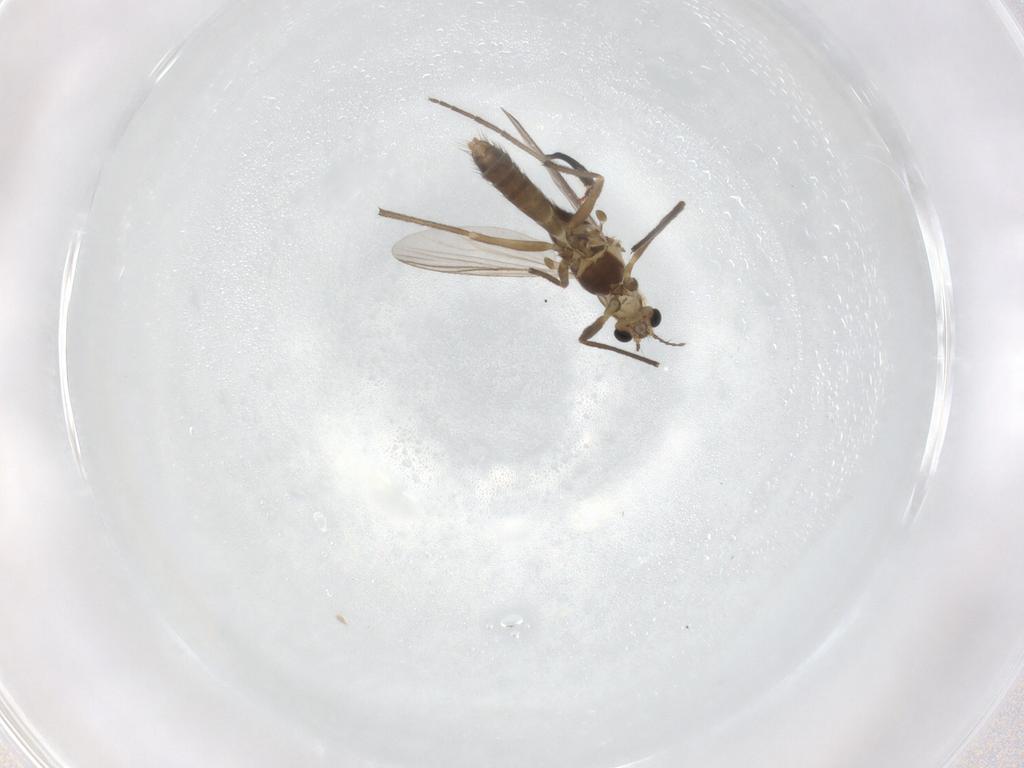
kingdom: Animalia
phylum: Arthropoda
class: Insecta
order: Diptera
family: Chironomidae
